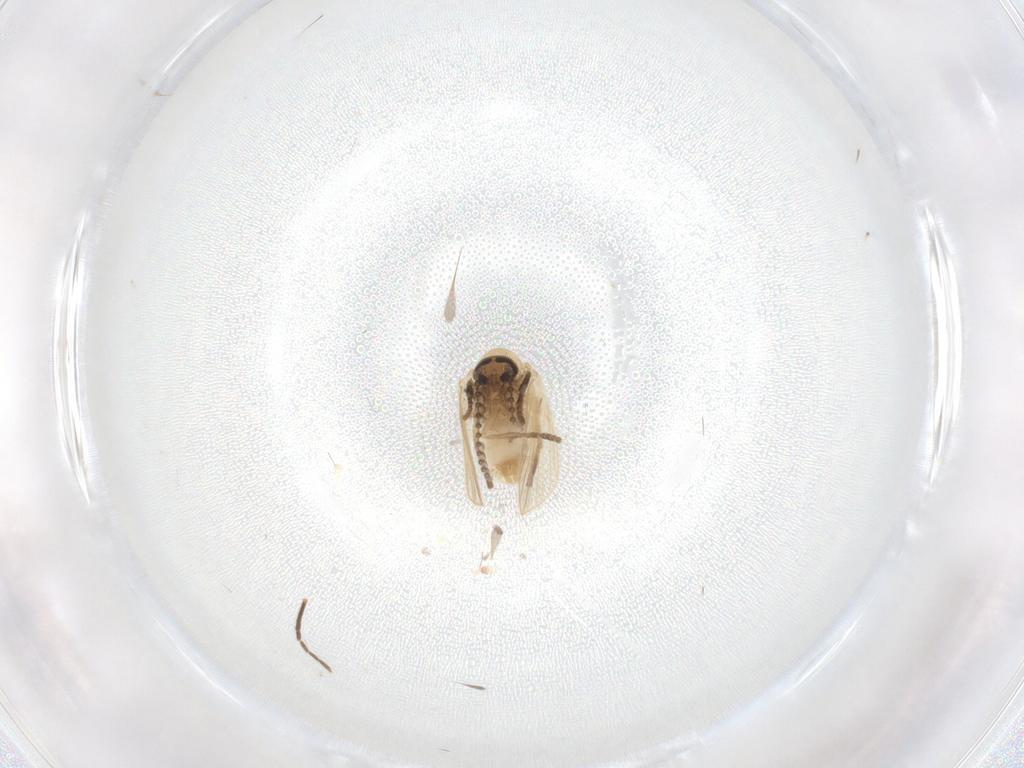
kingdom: Animalia
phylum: Arthropoda
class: Insecta
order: Diptera
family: Psychodidae
